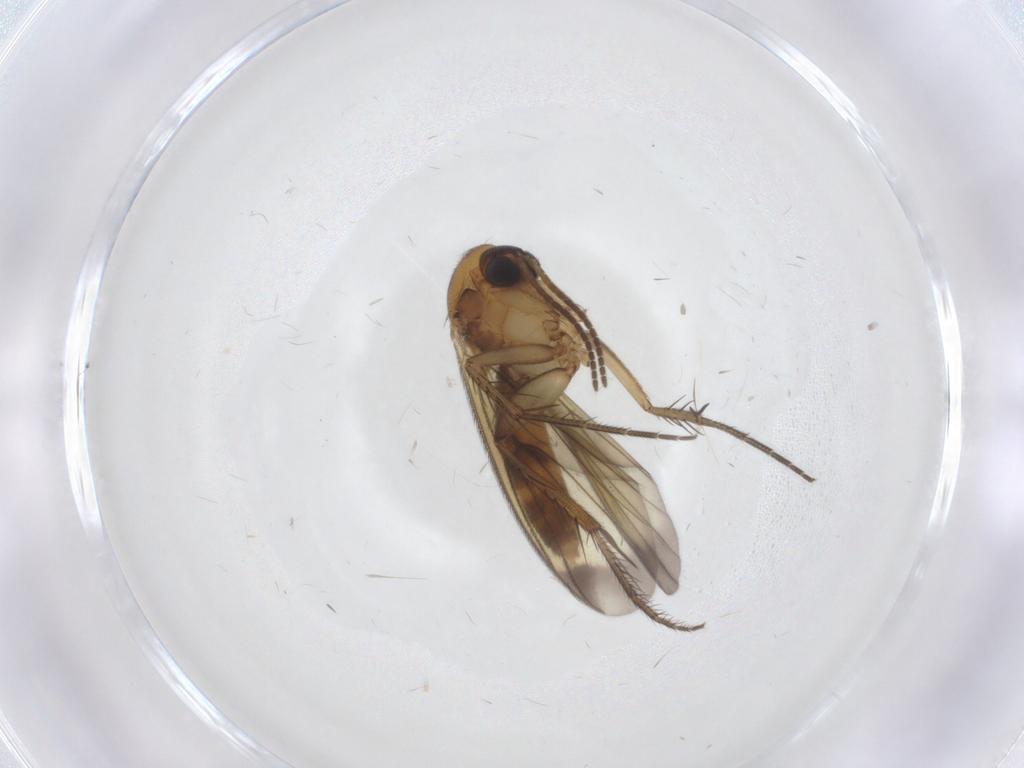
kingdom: Animalia
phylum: Arthropoda
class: Insecta
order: Diptera
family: Mycetophilidae
